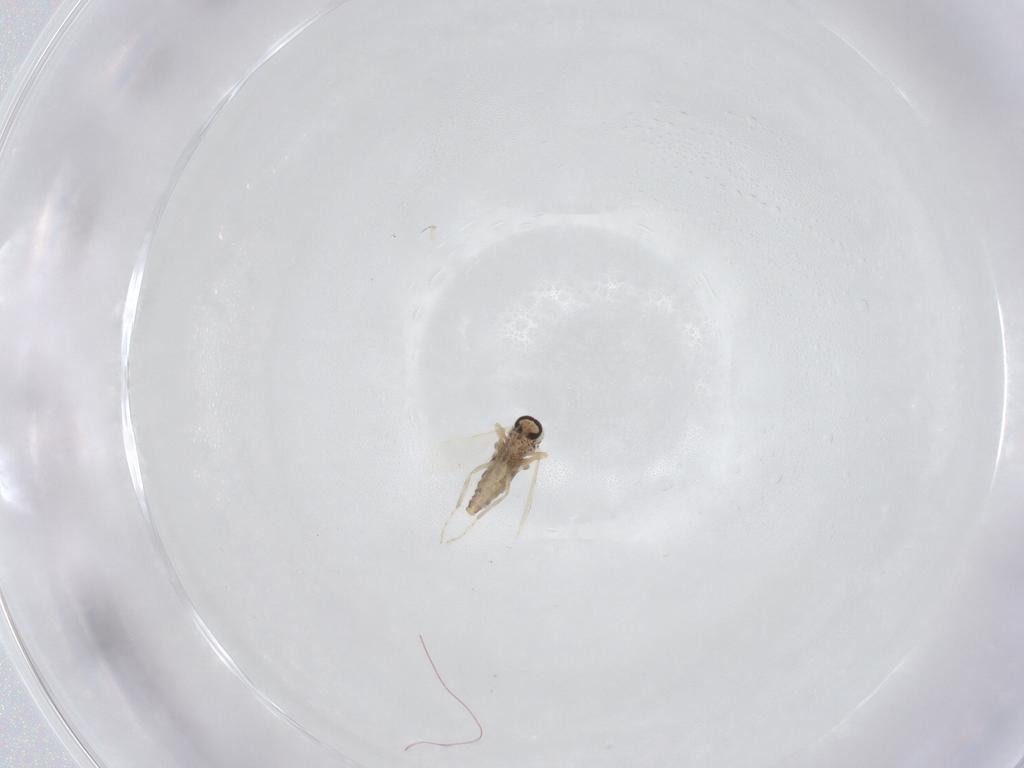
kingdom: Animalia
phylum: Arthropoda
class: Insecta
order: Diptera
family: Ceratopogonidae
